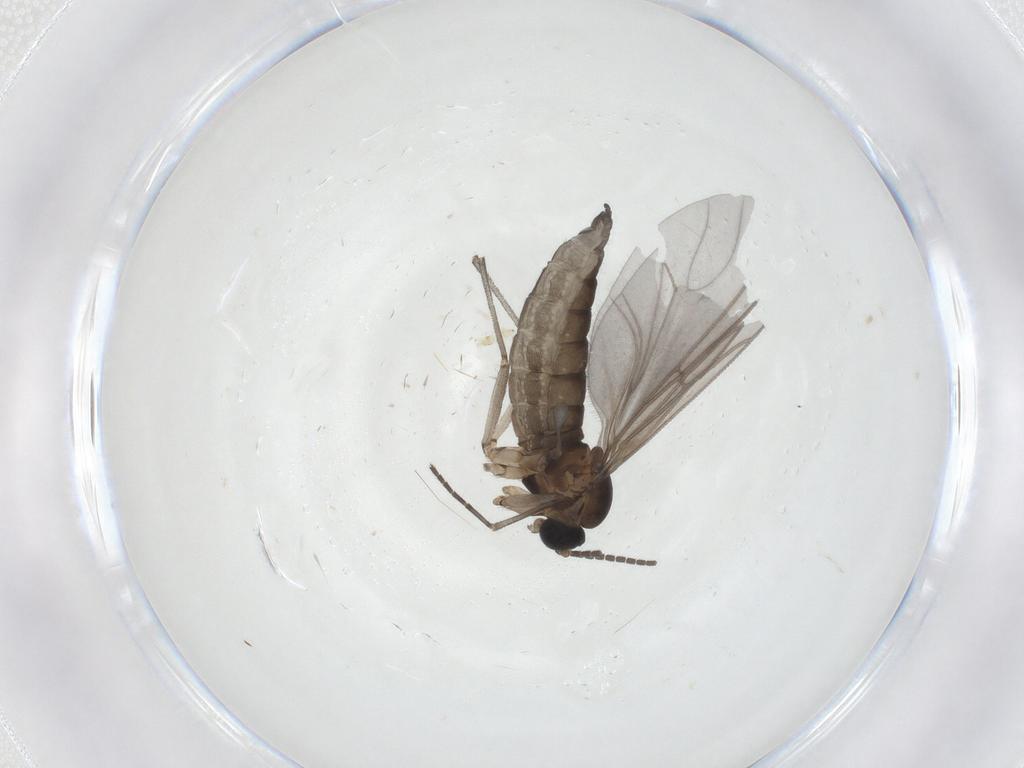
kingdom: Animalia
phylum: Arthropoda
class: Insecta
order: Diptera
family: Sciaridae
